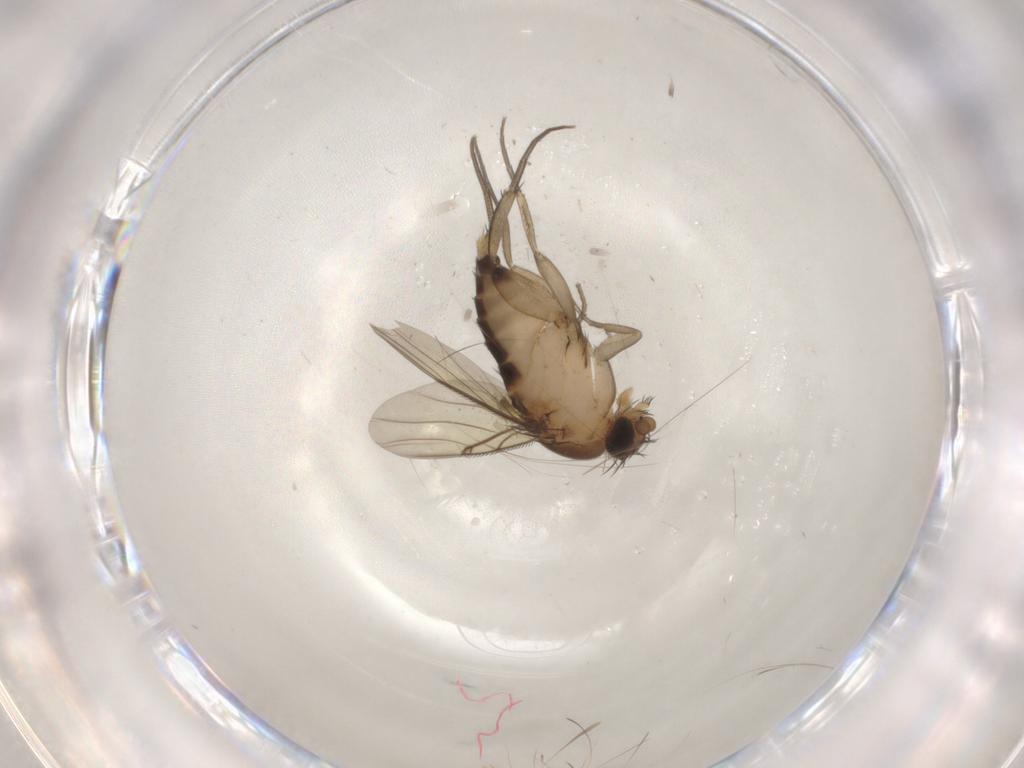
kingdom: Animalia
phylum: Arthropoda
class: Insecta
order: Diptera
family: Phoridae
